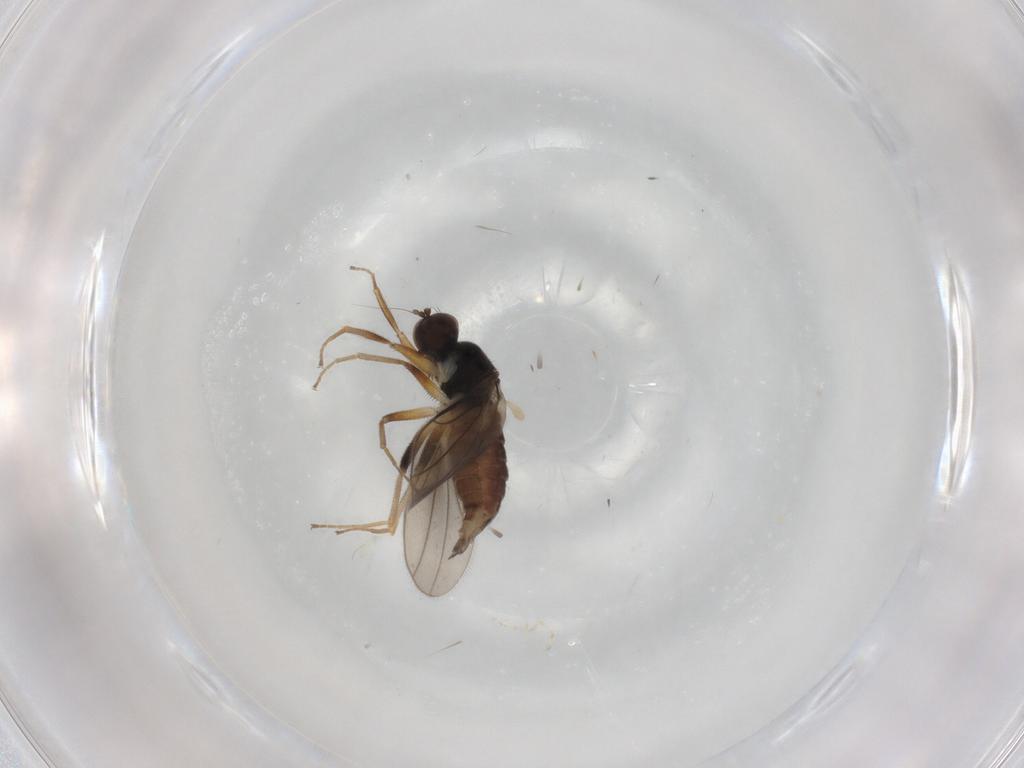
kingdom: Animalia
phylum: Arthropoda
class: Insecta
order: Diptera
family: Hybotidae
